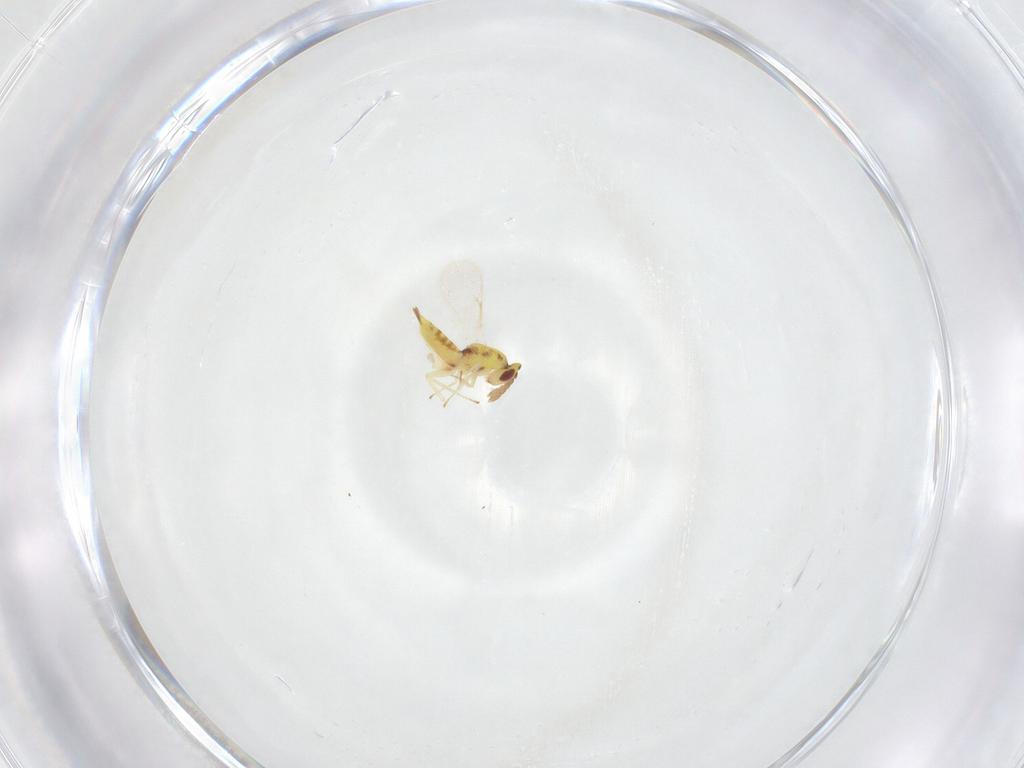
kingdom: Animalia
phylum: Arthropoda
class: Insecta
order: Hymenoptera
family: Eulophidae
